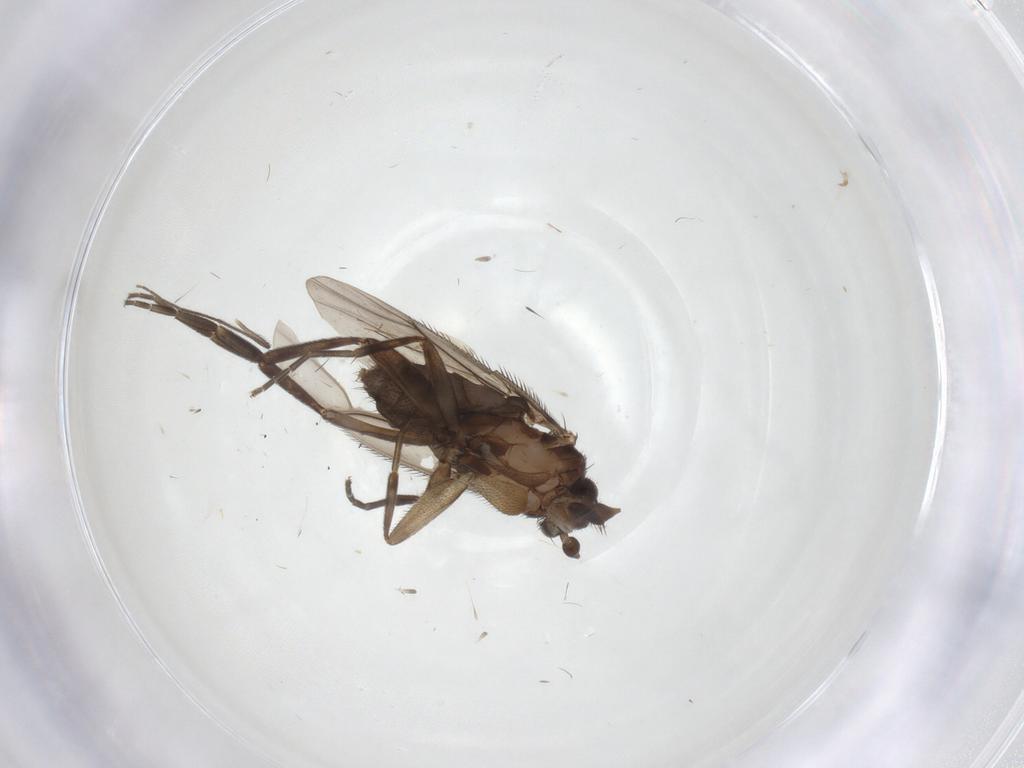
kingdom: Animalia
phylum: Arthropoda
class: Insecta
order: Diptera
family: Phoridae
